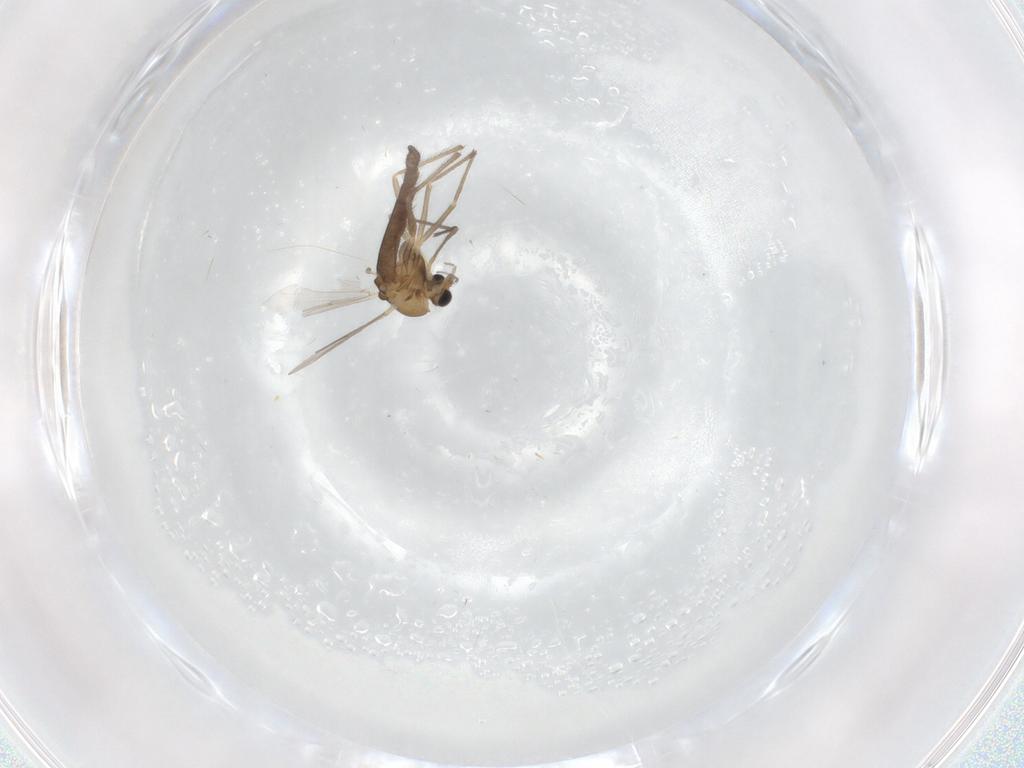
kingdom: Animalia
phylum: Arthropoda
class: Insecta
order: Diptera
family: Chironomidae
